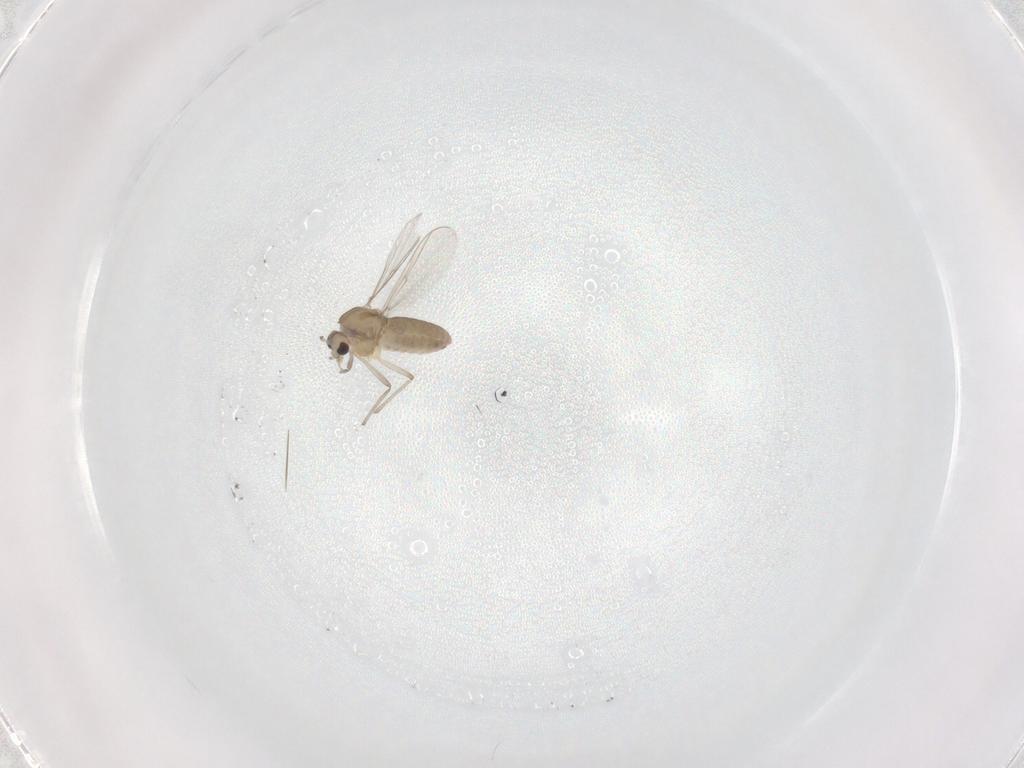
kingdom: Animalia
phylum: Arthropoda
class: Insecta
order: Diptera
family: Chironomidae
